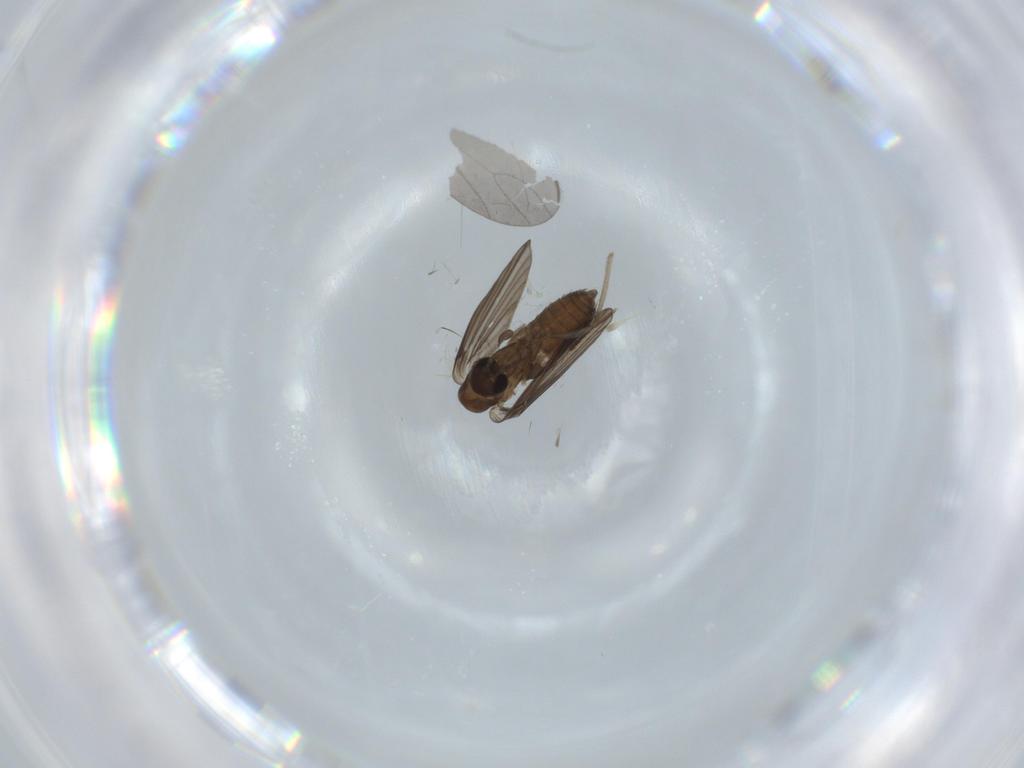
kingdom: Animalia
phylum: Arthropoda
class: Insecta
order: Diptera
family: Psychodidae
